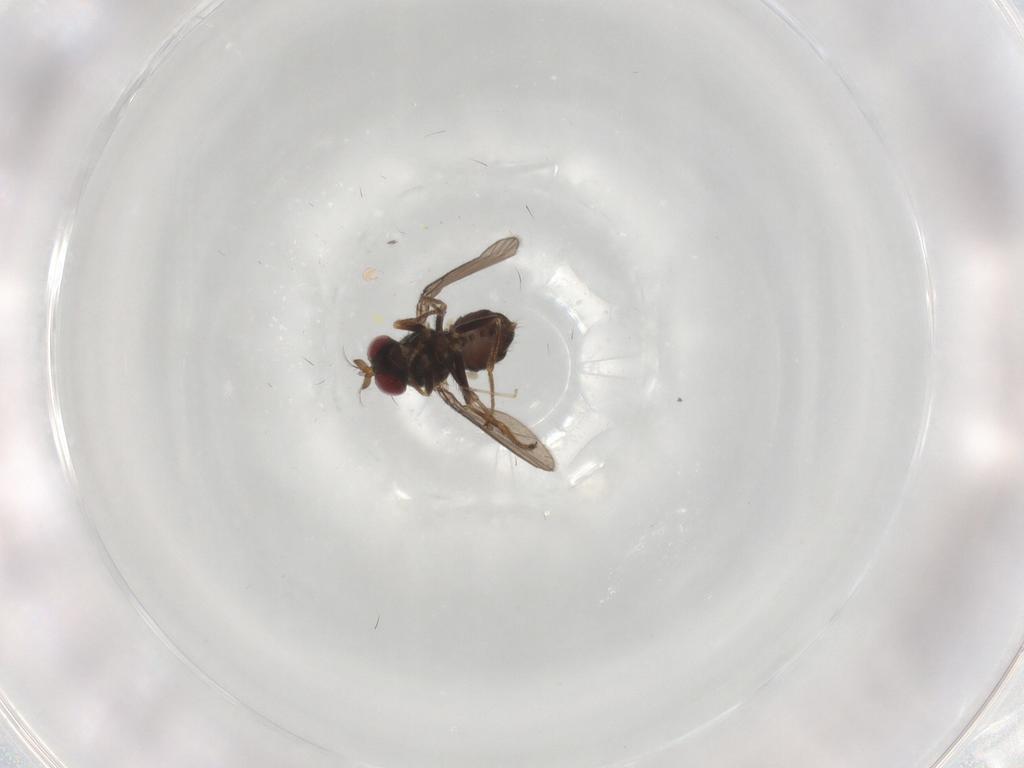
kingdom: Animalia
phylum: Arthropoda
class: Insecta
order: Diptera
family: Ephydridae
